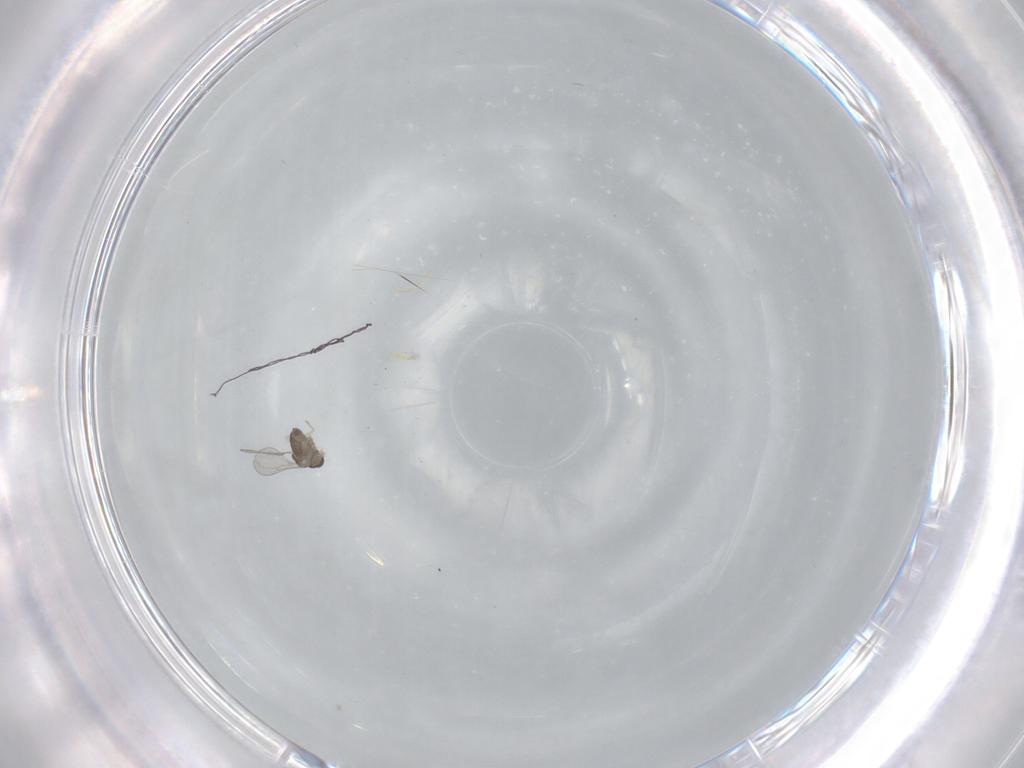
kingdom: Animalia
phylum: Arthropoda
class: Insecta
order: Diptera
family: Cecidomyiidae
